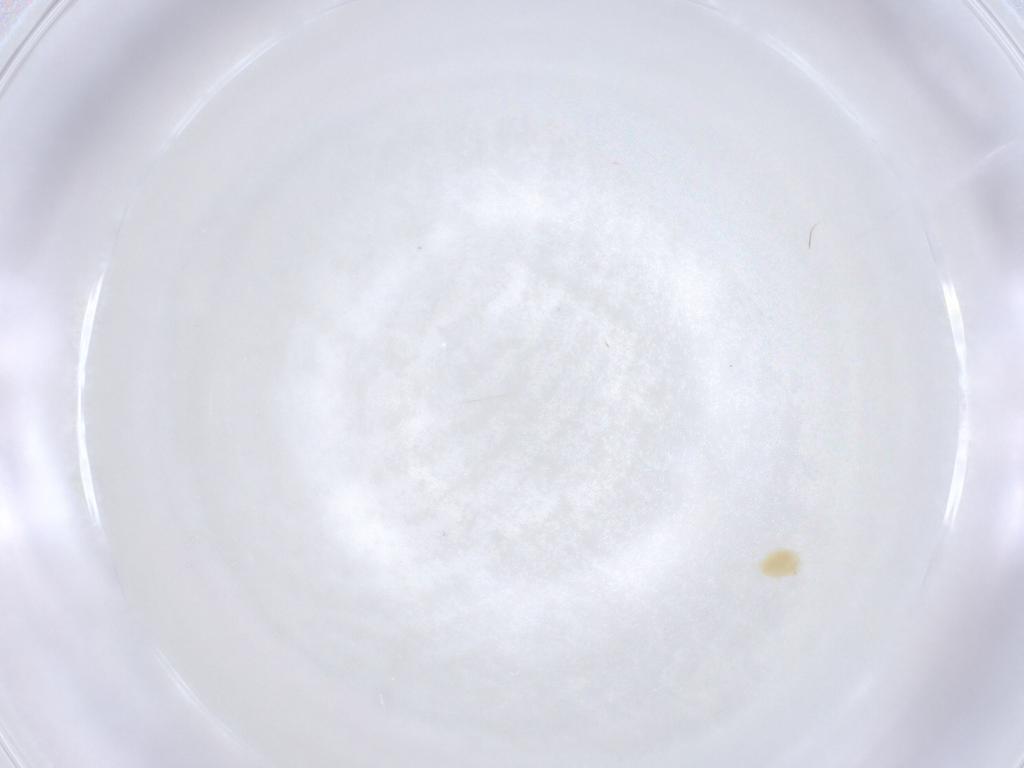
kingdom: Animalia
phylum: Arthropoda
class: Arachnida
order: Trombidiformes
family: Tetranychidae
